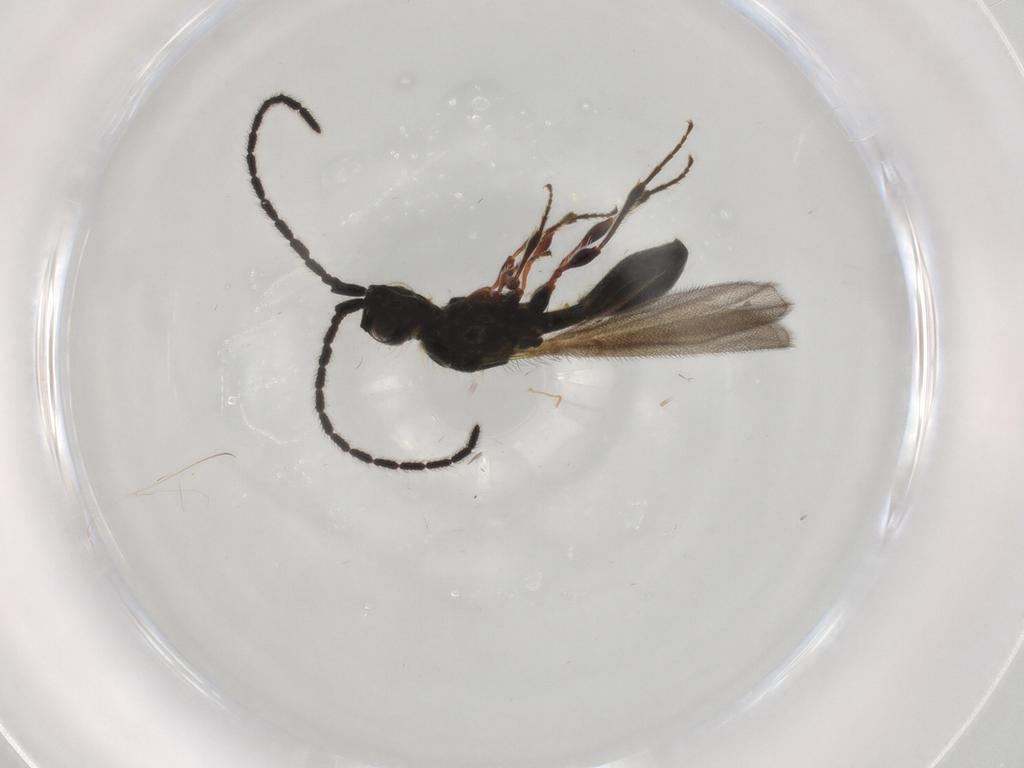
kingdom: Animalia
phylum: Arthropoda
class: Insecta
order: Hymenoptera
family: Formicidae
